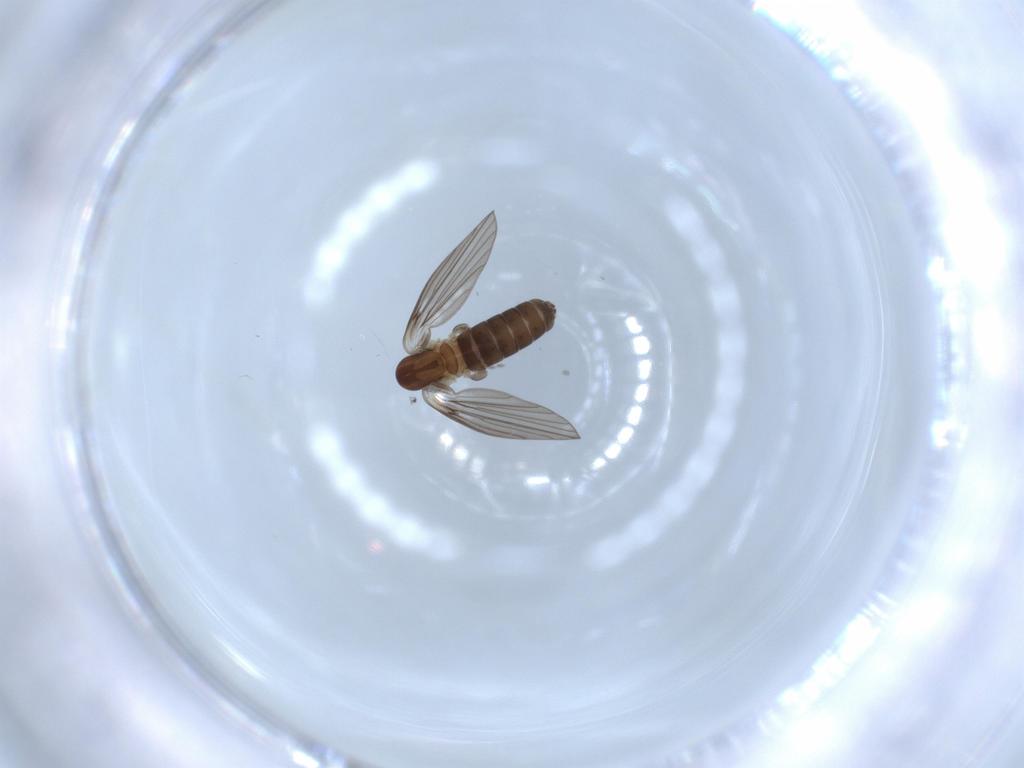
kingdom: Animalia
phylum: Arthropoda
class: Insecta
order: Diptera
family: Psychodidae
